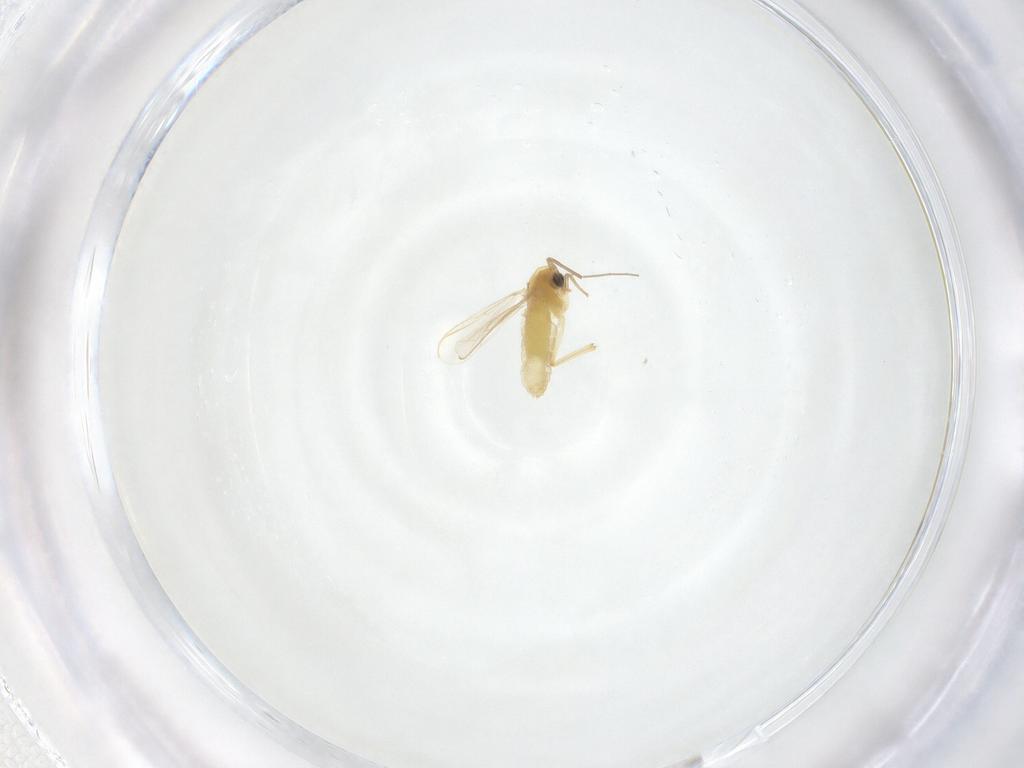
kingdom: Animalia
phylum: Arthropoda
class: Insecta
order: Diptera
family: Chironomidae
